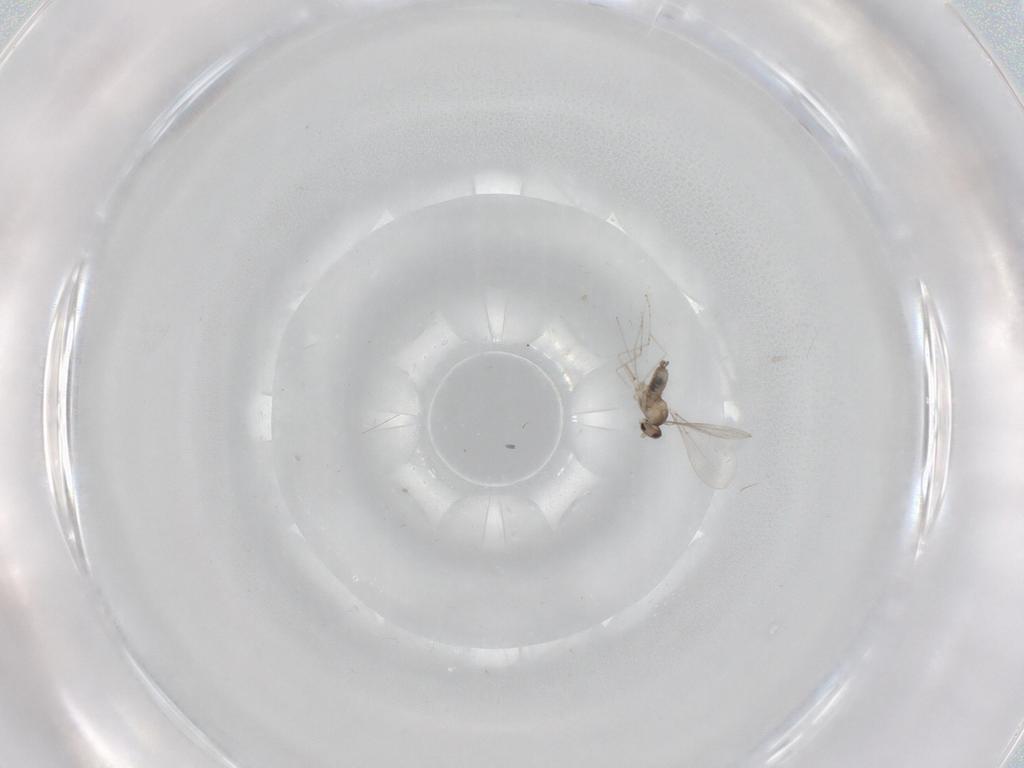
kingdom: Animalia
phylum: Arthropoda
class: Insecta
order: Diptera
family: Cecidomyiidae
